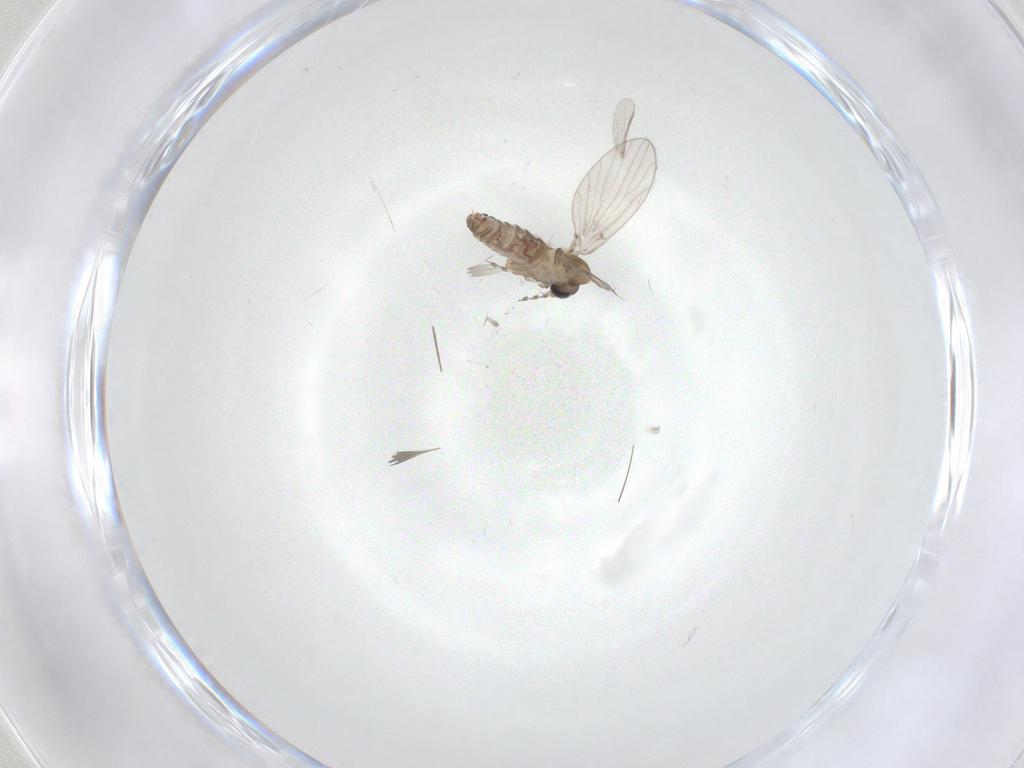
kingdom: Animalia
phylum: Arthropoda
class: Insecta
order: Diptera
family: Chironomidae
